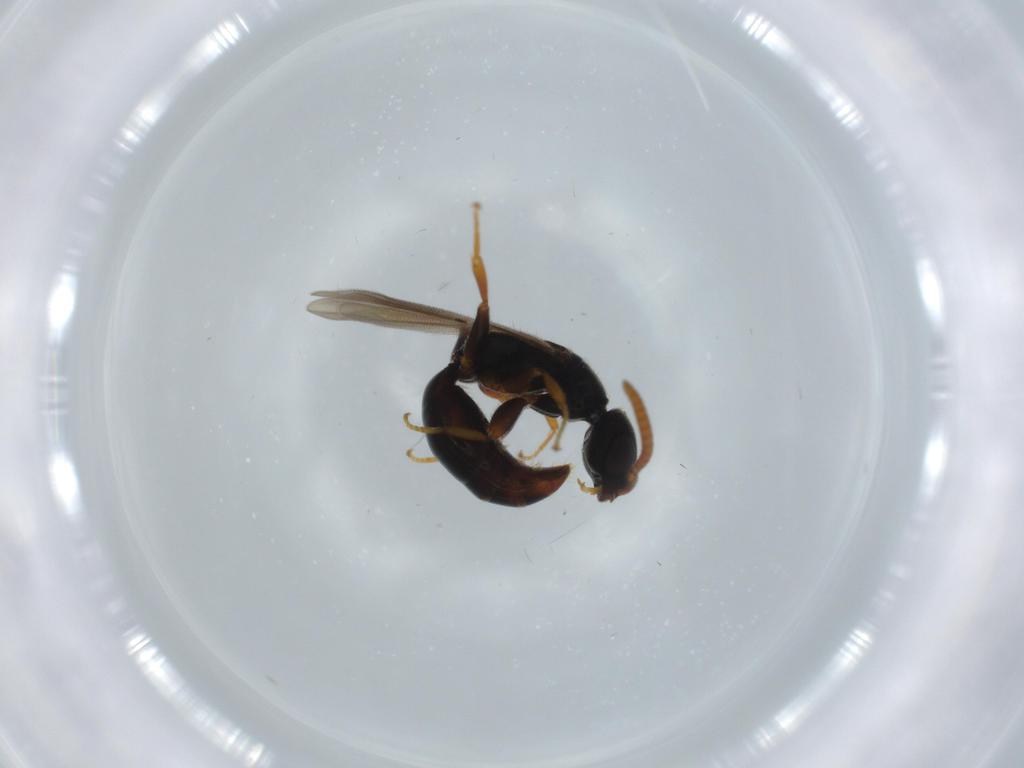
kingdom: Animalia
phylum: Arthropoda
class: Insecta
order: Hymenoptera
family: Bethylidae
